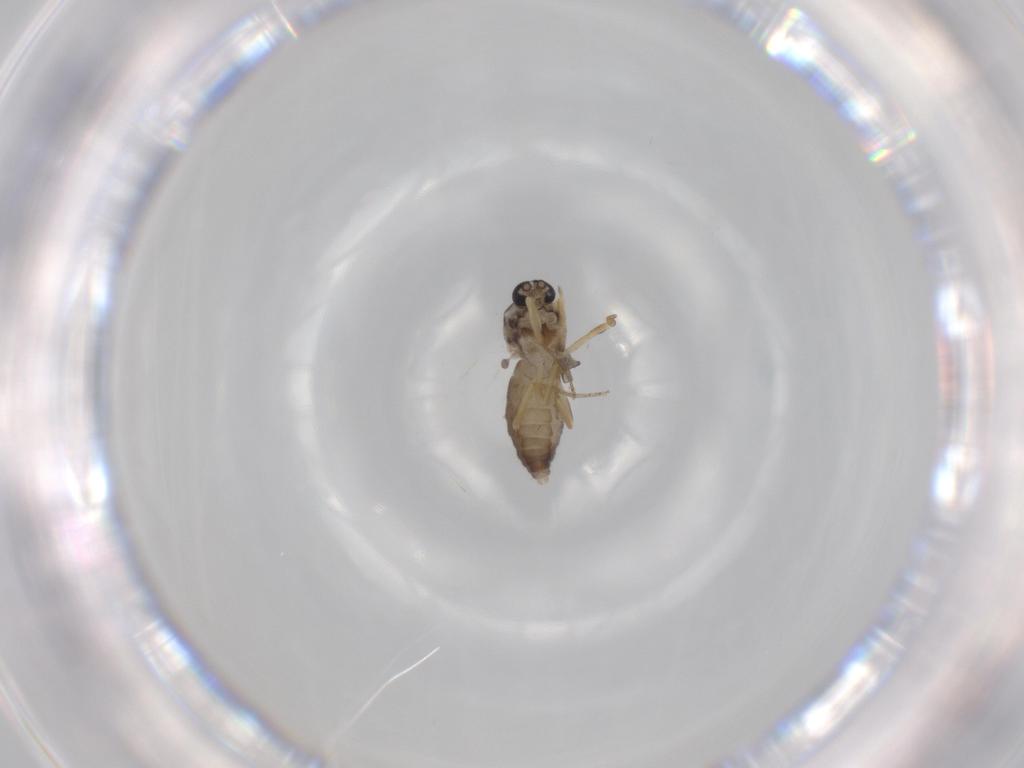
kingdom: Animalia
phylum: Arthropoda
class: Insecta
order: Diptera
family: Ceratopogonidae
